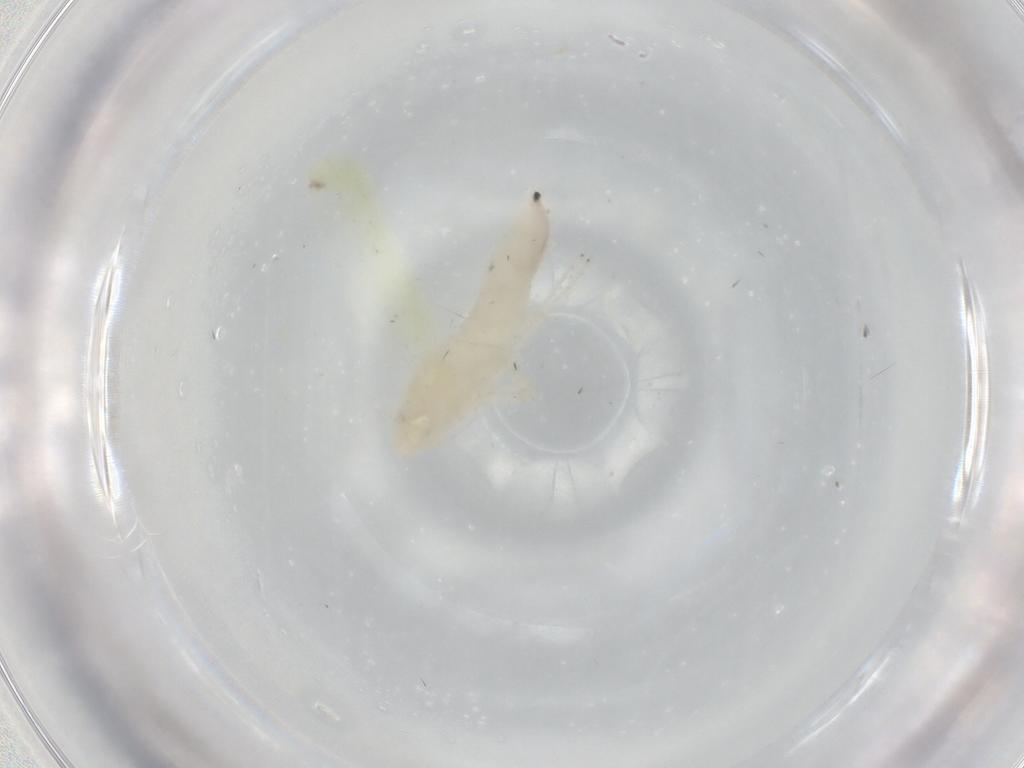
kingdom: Animalia
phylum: Arthropoda
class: Insecta
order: Hemiptera
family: Cicadellidae
